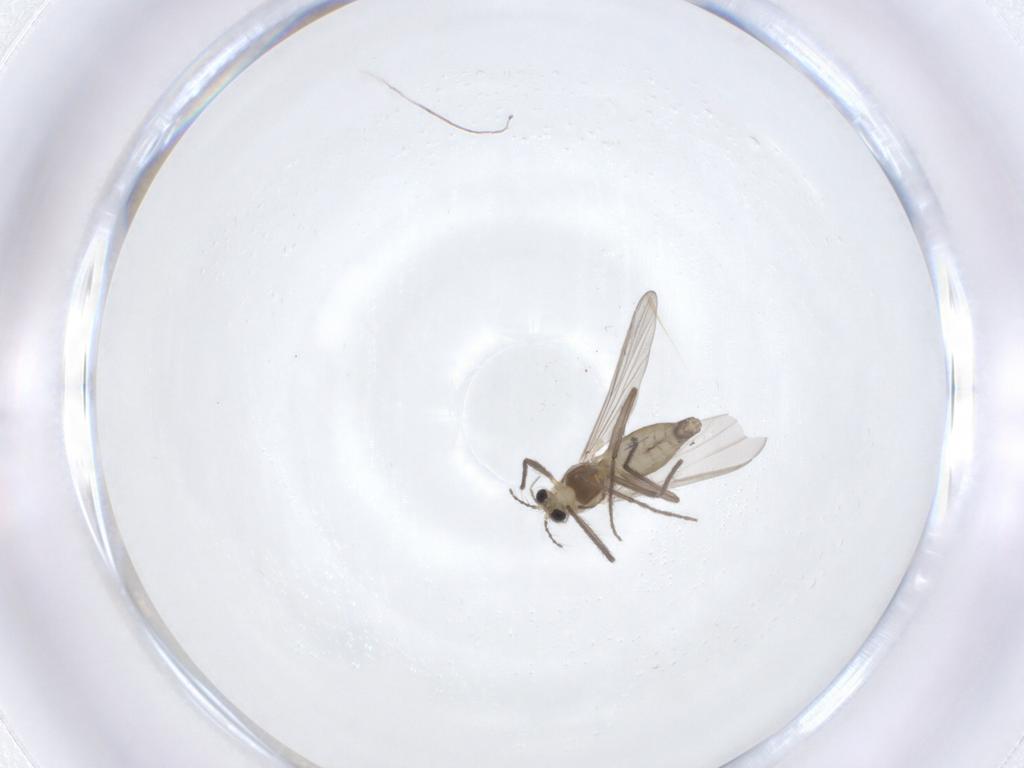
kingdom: Animalia
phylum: Arthropoda
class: Insecta
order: Diptera
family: Chironomidae
